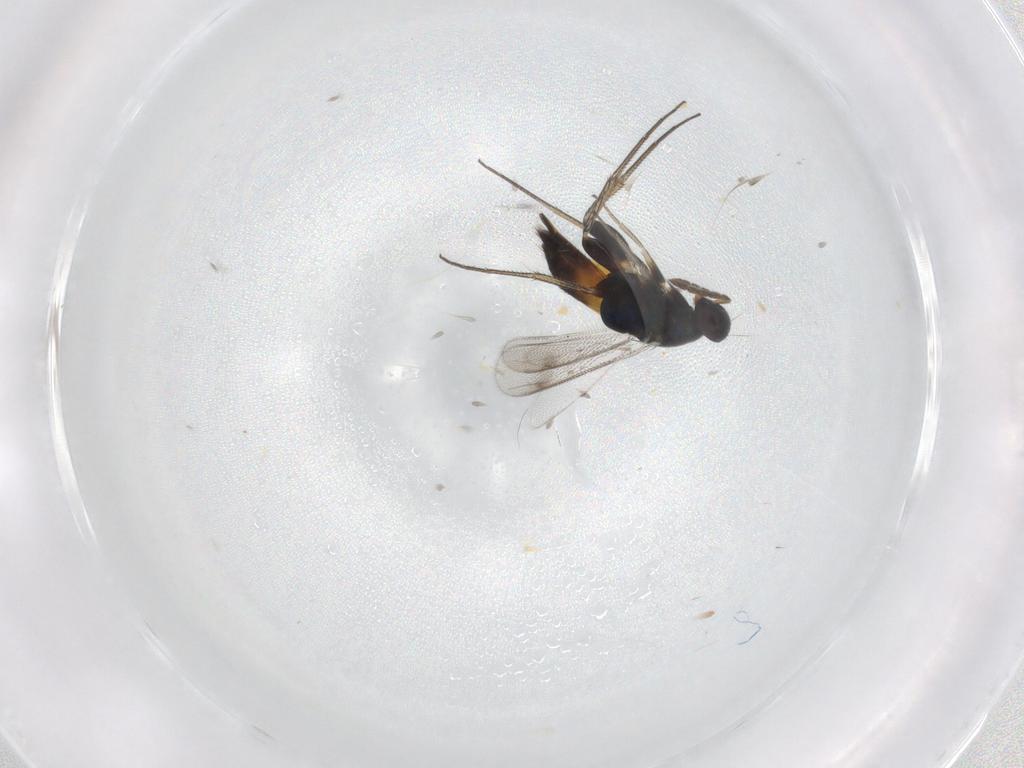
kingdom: Animalia
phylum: Arthropoda
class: Insecta
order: Hymenoptera
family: Eulophidae
